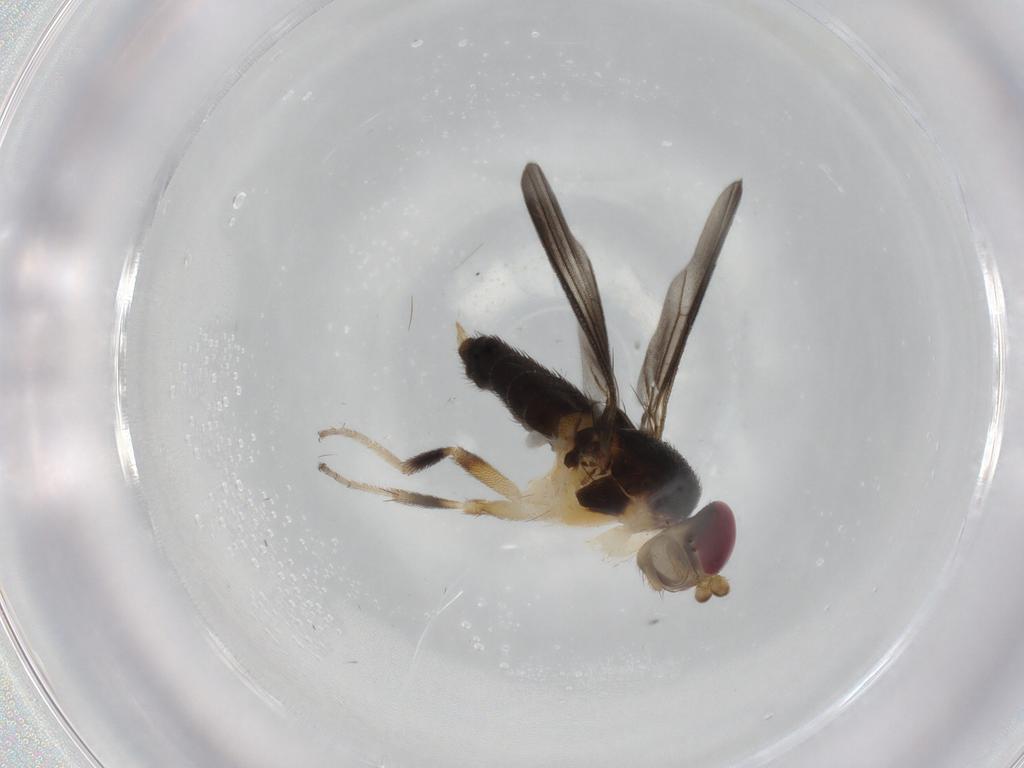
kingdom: Animalia
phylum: Arthropoda
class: Insecta
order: Diptera
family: Clusiidae
